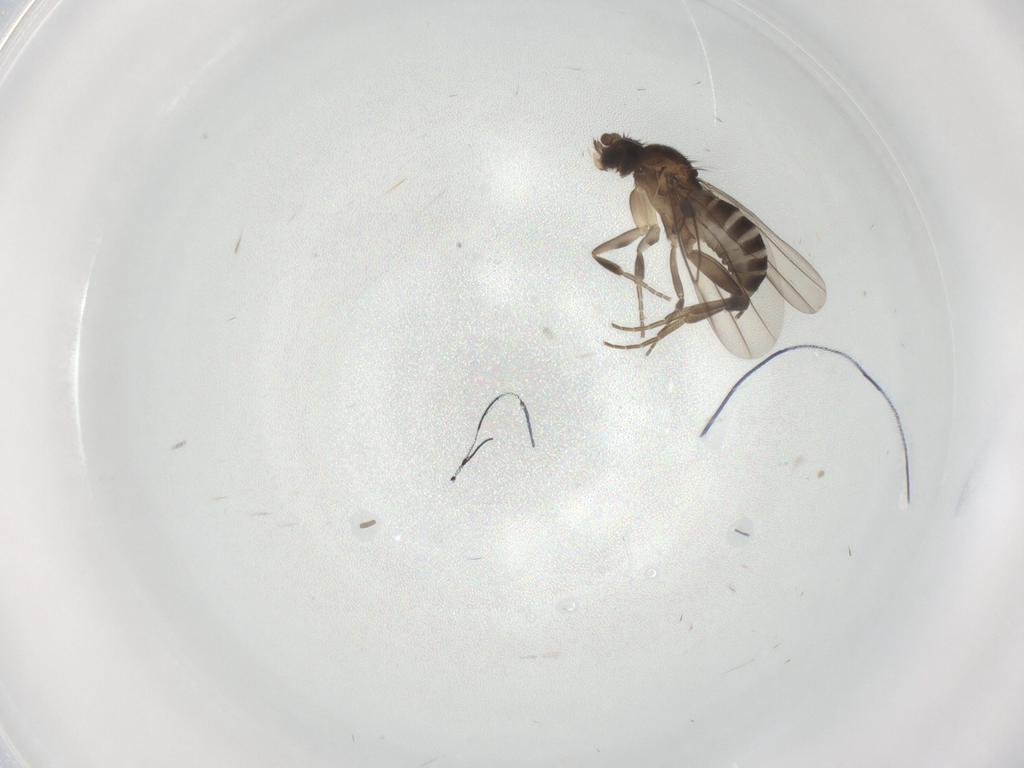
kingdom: Animalia
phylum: Arthropoda
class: Insecta
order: Diptera
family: Phoridae
